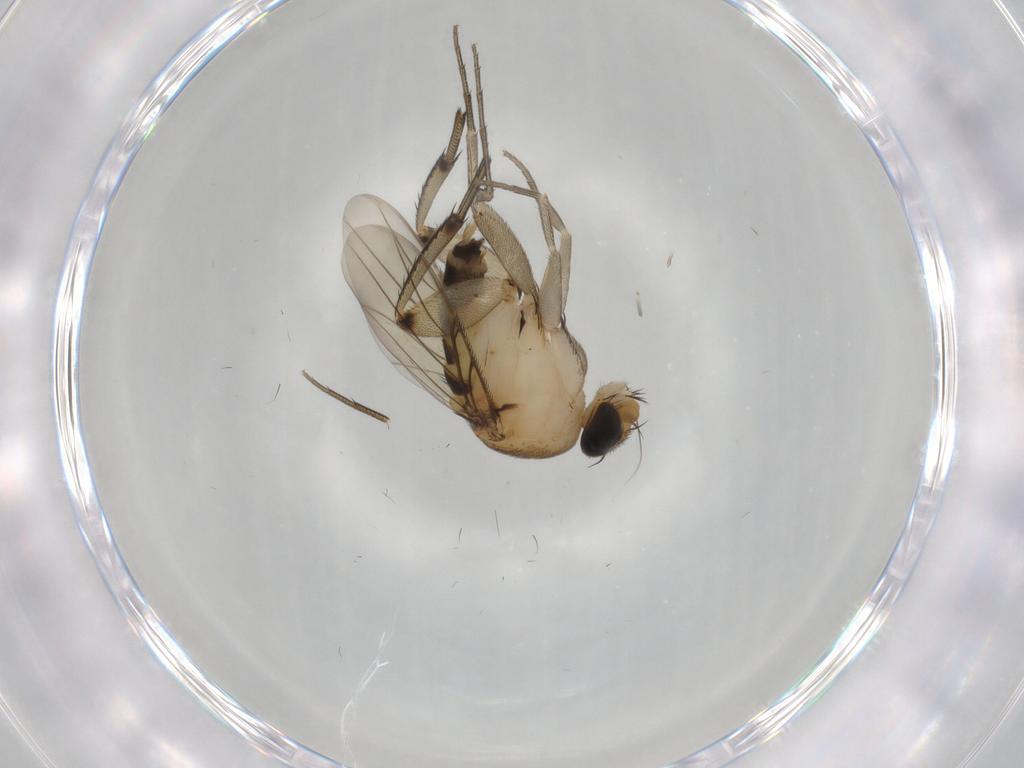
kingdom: Animalia
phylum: Arthropoda
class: Insecta
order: Diptera
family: Phoridae
